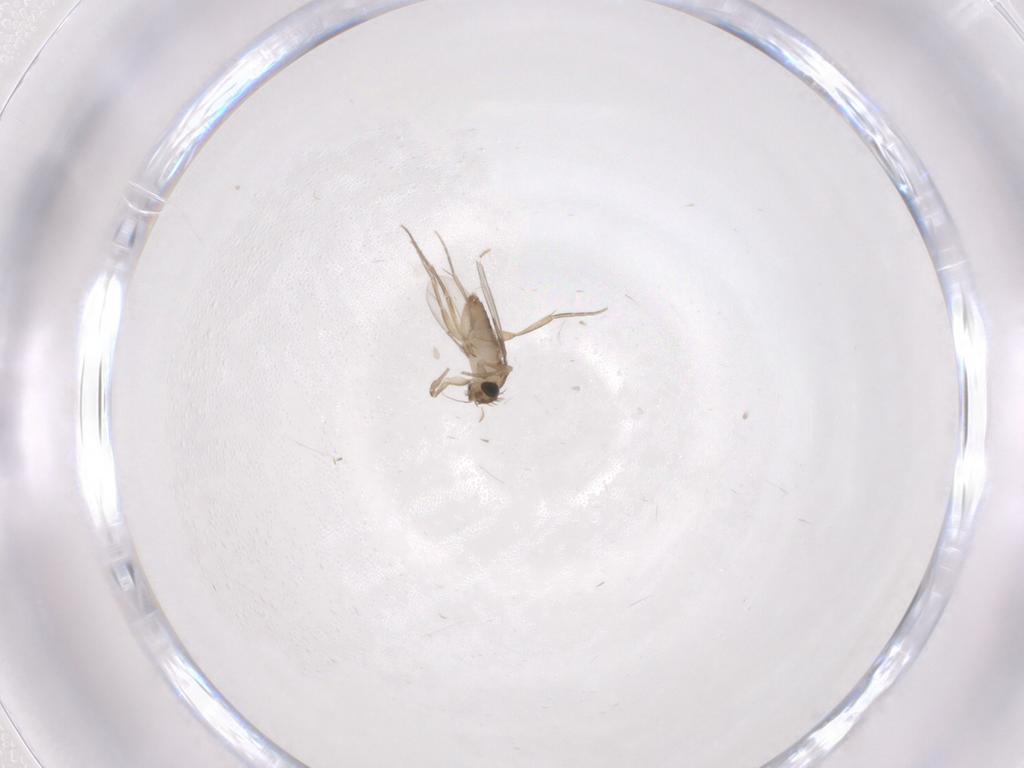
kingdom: Animalia
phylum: Arthropoda
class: Insecta
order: Diptera
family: Phoridae
